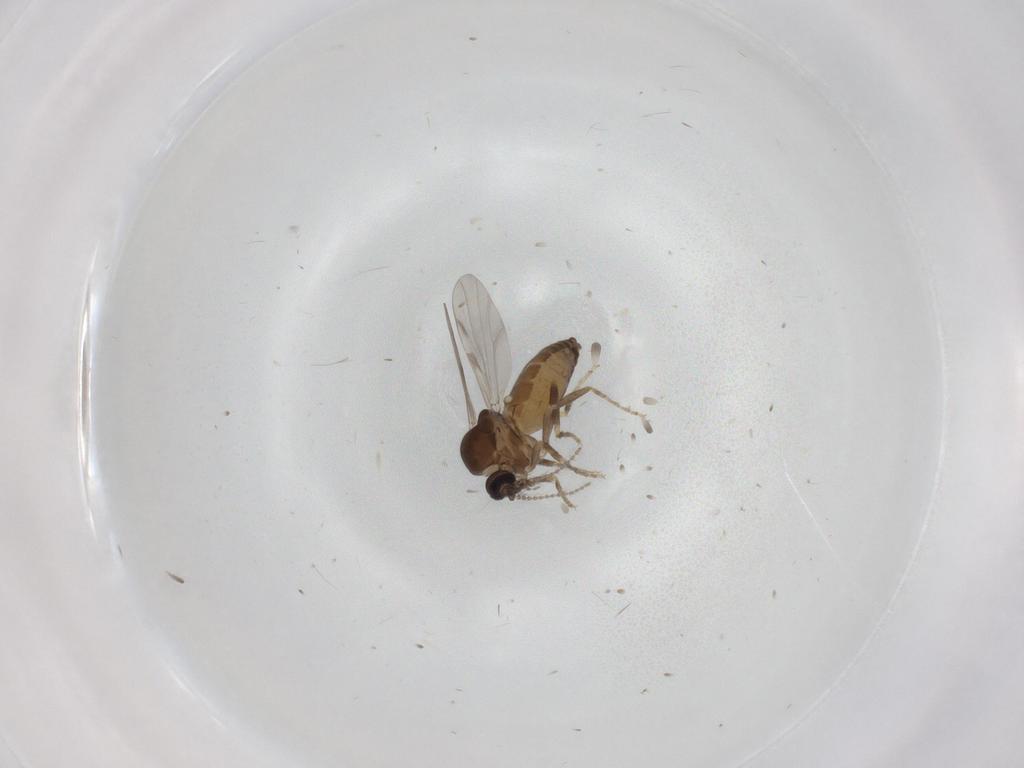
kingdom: Animalia
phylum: Arthropoda
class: Insecta
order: Diptera
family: Ceratopogonidae
